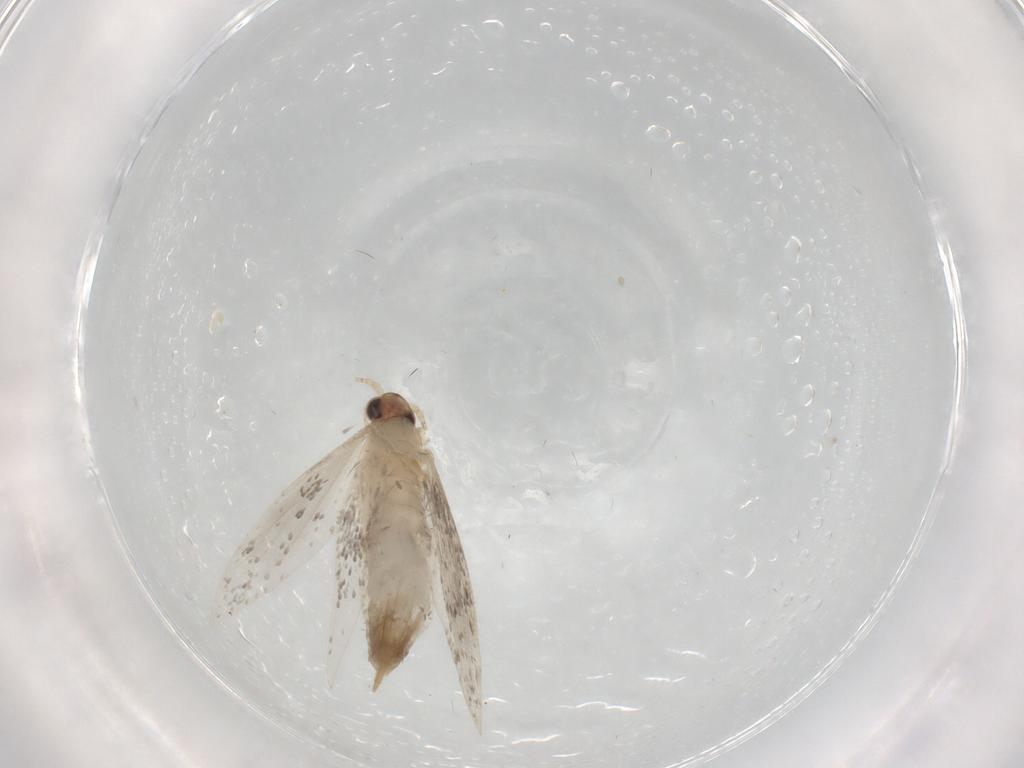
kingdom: Animalia
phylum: Arthropoda
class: Insecta
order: Lepidoptera
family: Tineidae
